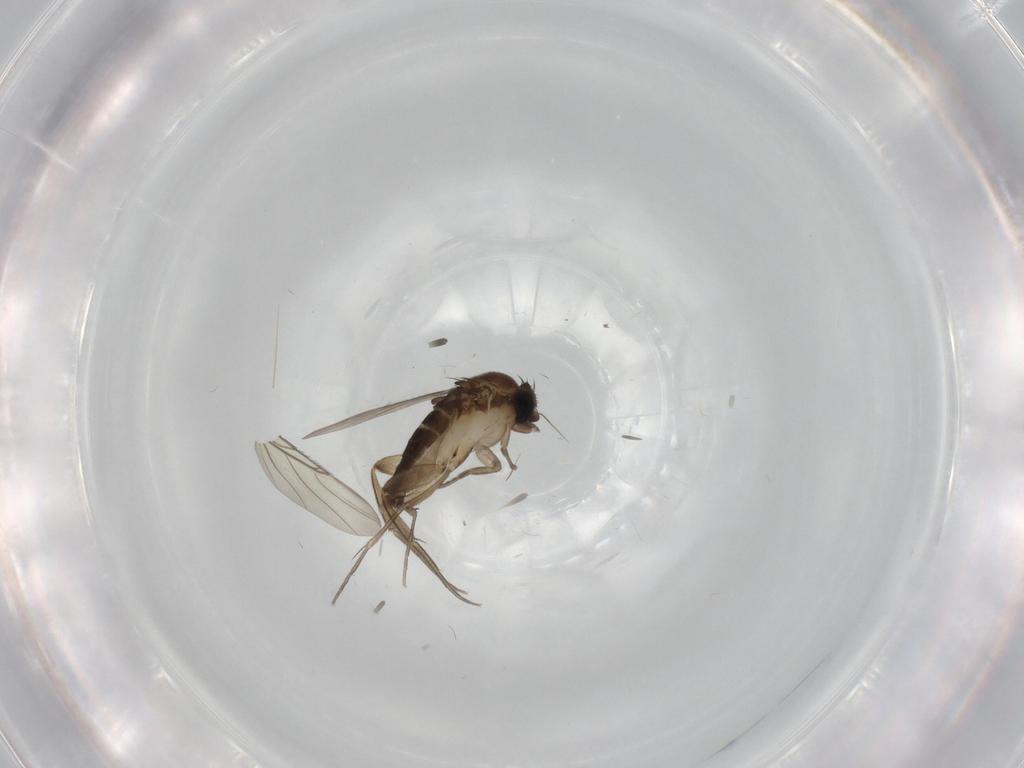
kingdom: Animalia
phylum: Arthropoda
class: Insecta
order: Diptera
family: Phoridae
